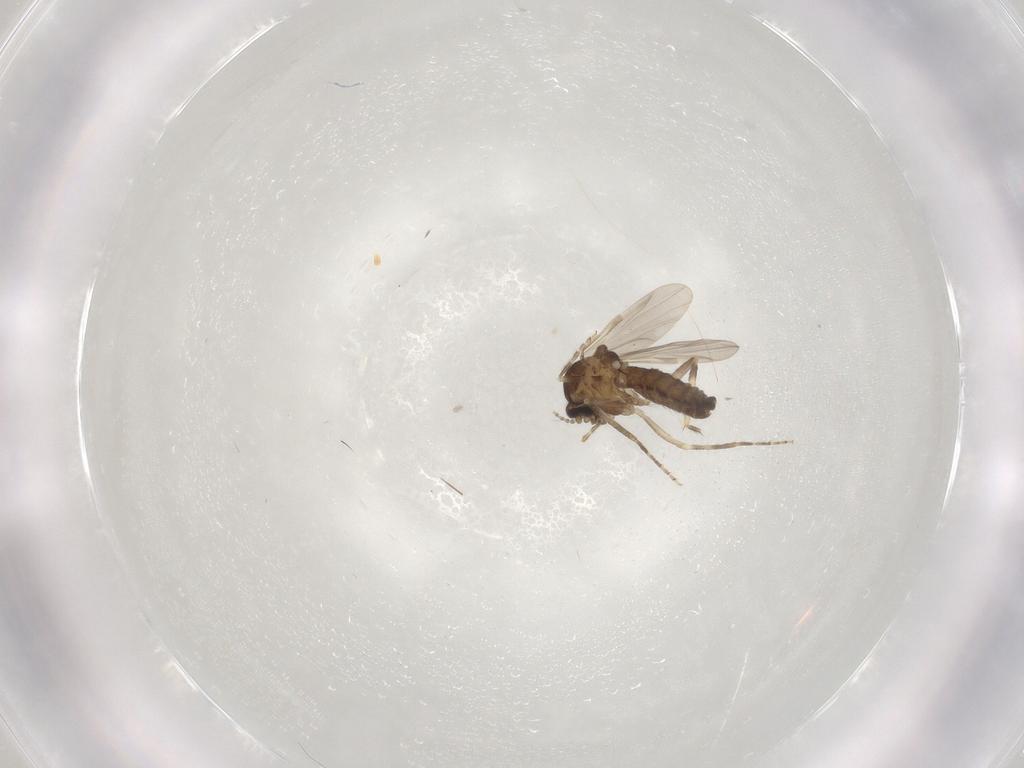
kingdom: Animalia
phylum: Arthropoda
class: Insecta
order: Diptera
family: Ceratopogonidae
